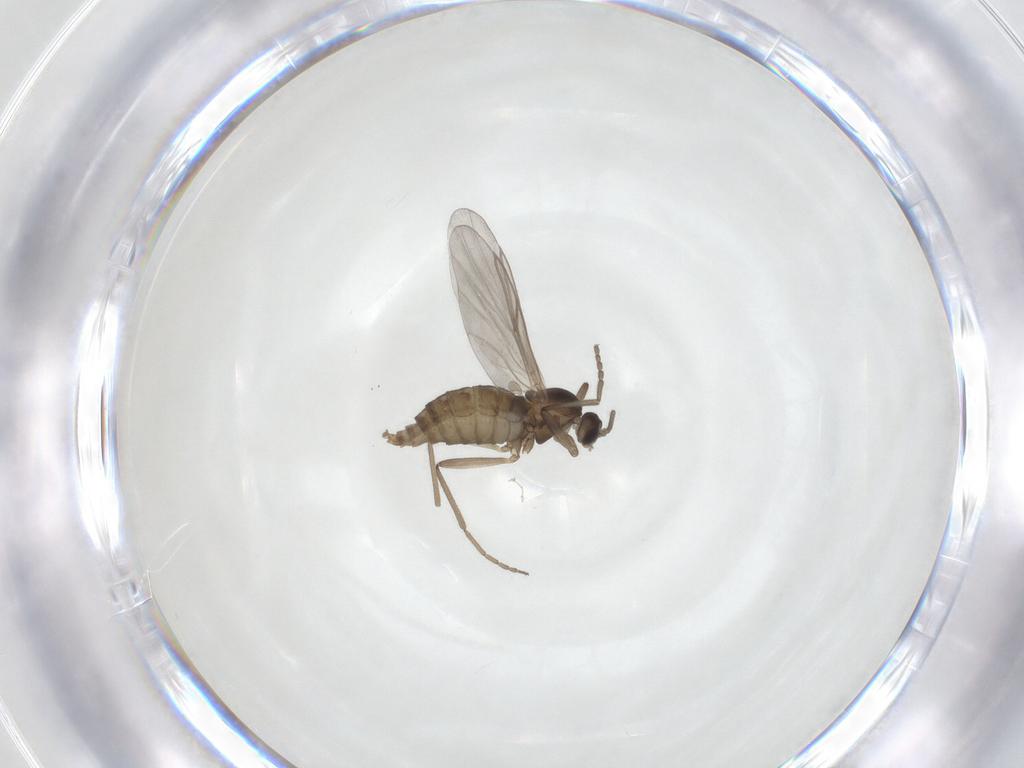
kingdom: Animalia
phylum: Arthropoda
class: Insecta
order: Diptera
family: Cecidomyiidae
